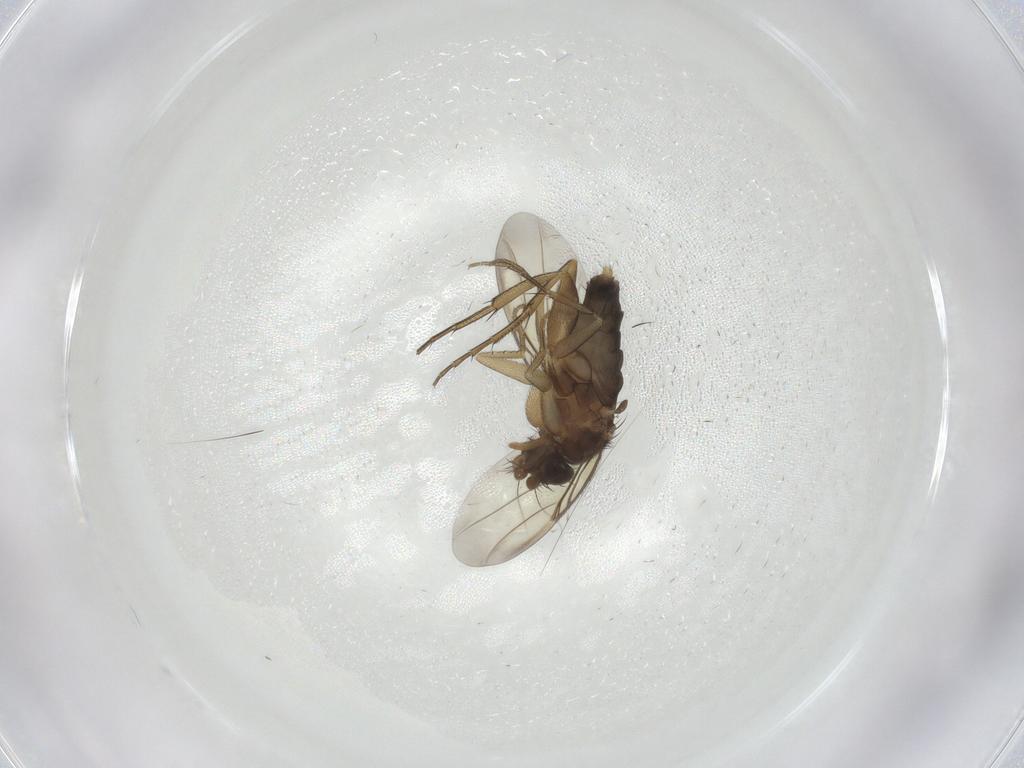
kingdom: Animalia
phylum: Arthropoda
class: Insecta
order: Diptera
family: Phoridae
